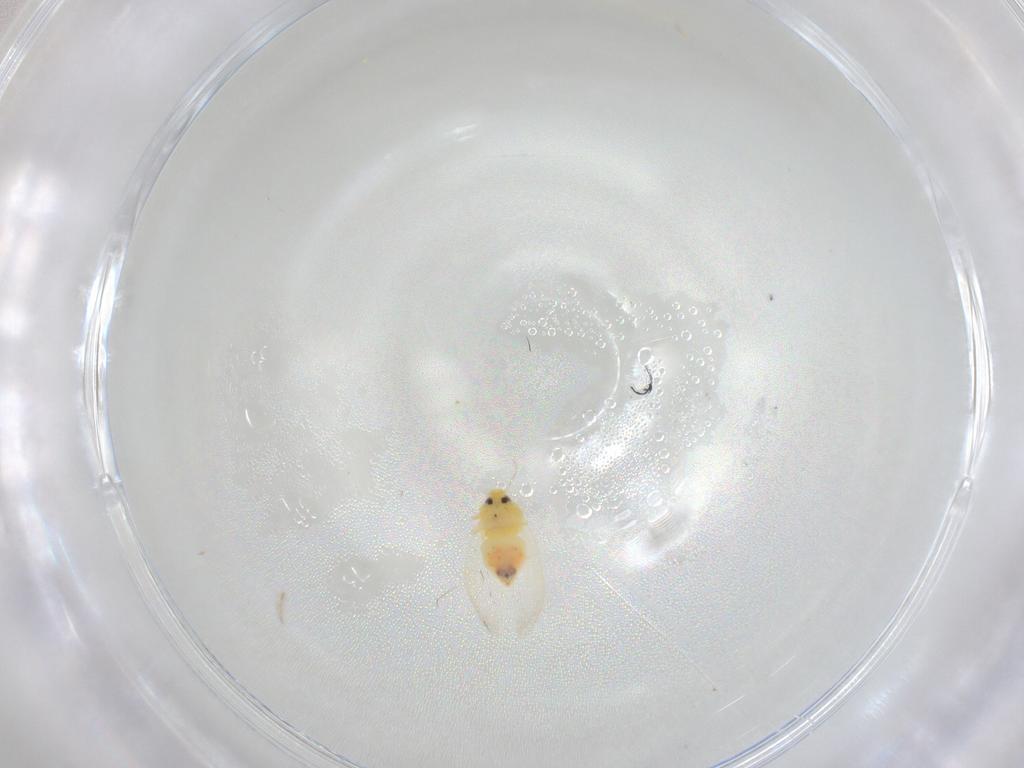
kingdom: Animalia
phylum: Arthropoda
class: Insecta
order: Hemiptera
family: Aleyrodidae
